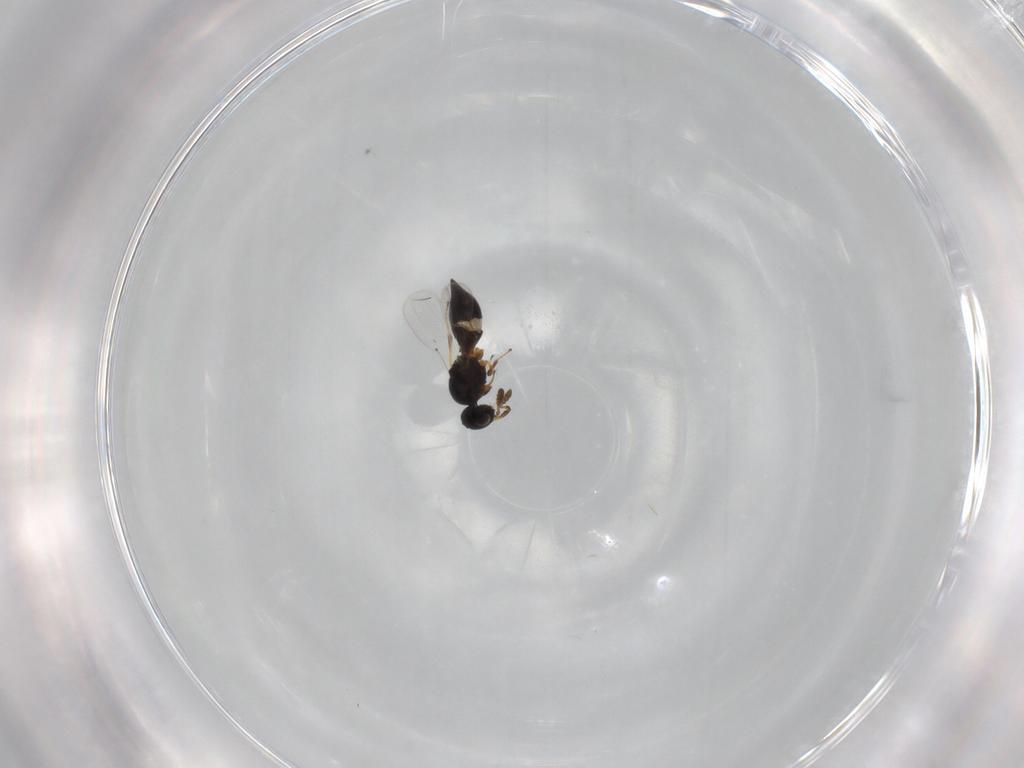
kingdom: Animalia
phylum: Arthropoda
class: Insecta
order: Hymenoptera
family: Platygastridae
